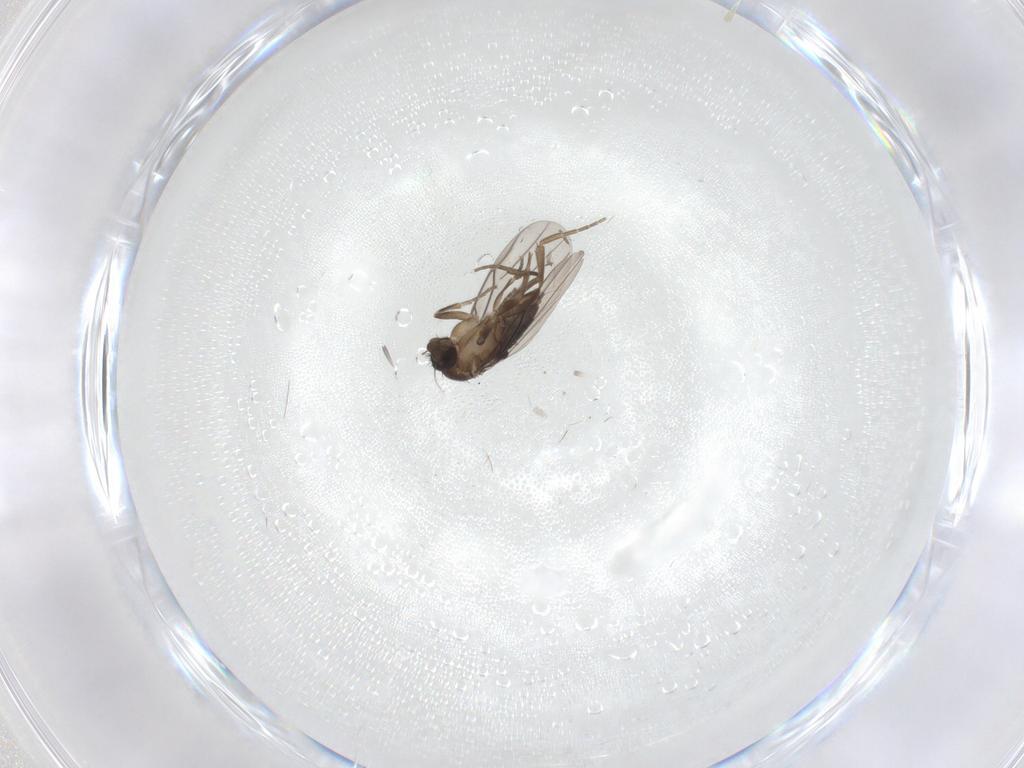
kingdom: Animalia
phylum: Arthropoda
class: Insecta
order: Diptera
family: Phoridae
